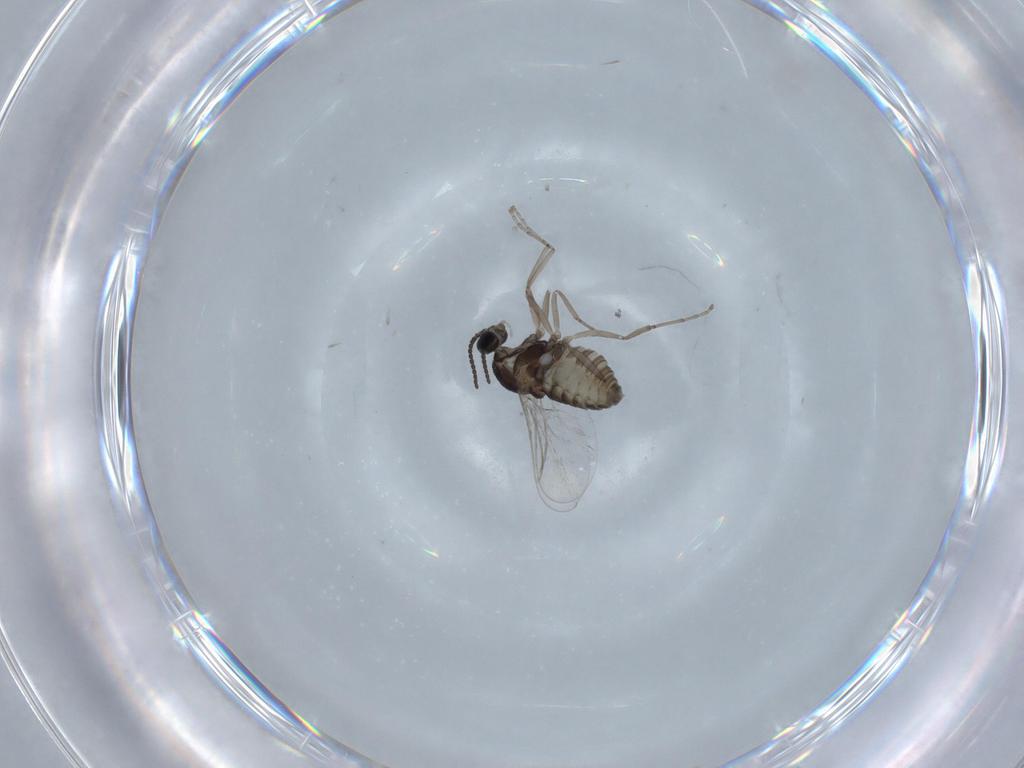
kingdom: Animalia
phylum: Arthropoda
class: Insecta
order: Diptera
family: Cecidomyiidae
